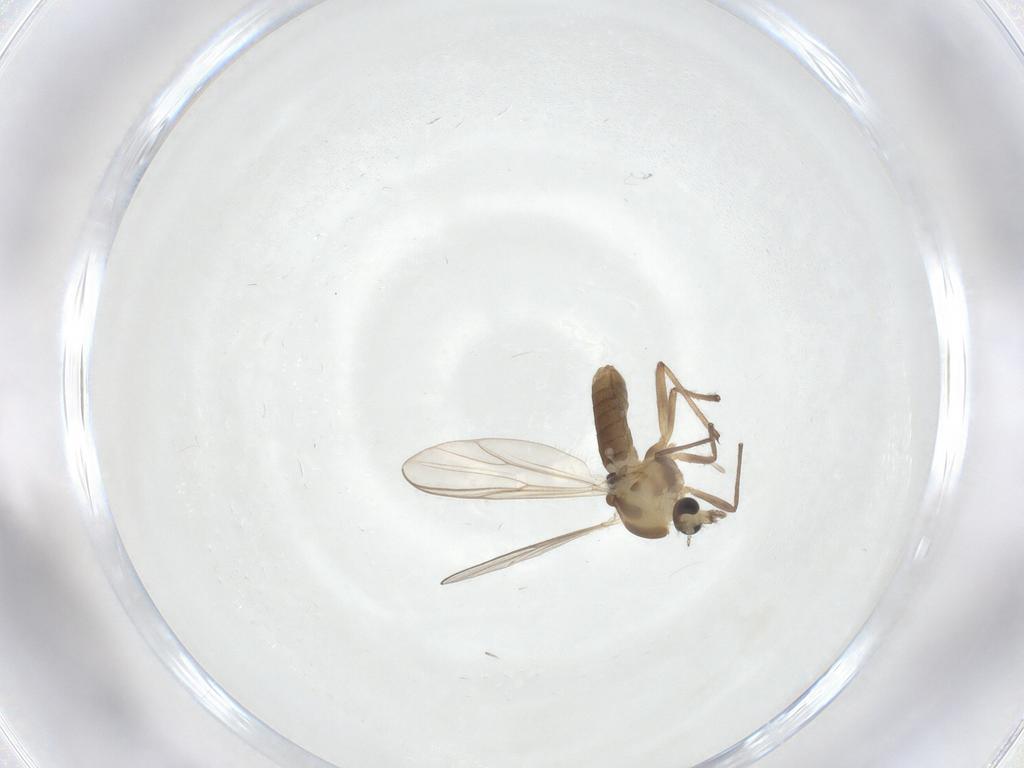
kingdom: Animalia
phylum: Arthropoda
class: Insecta
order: Diptera
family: Chironomidae
